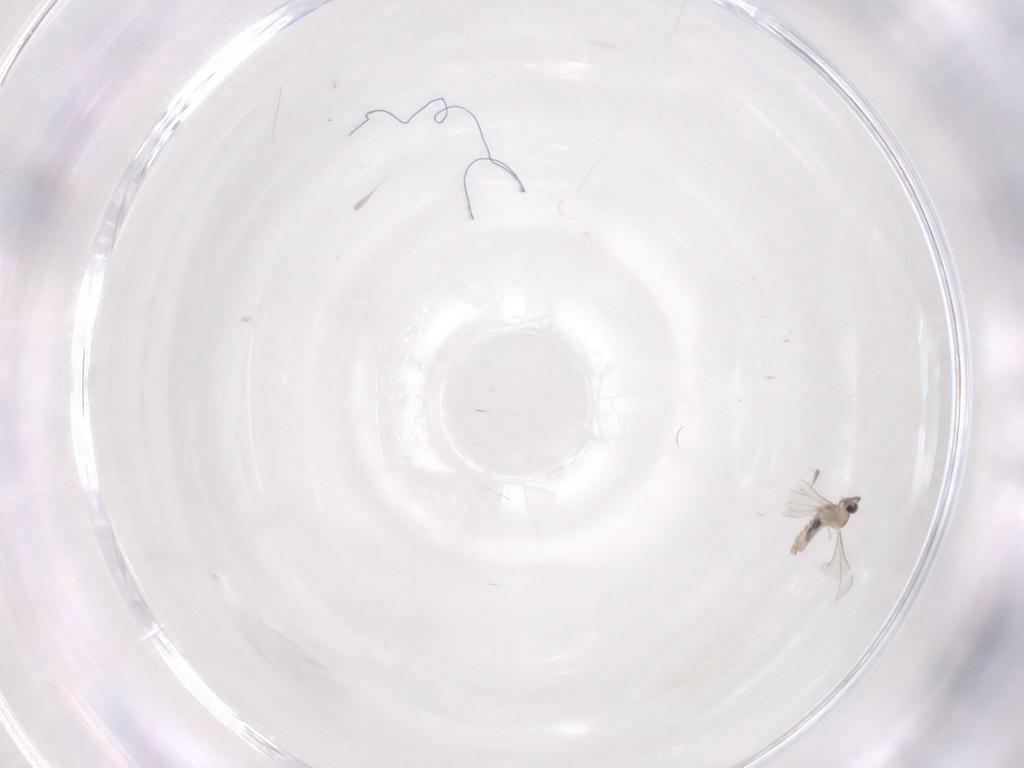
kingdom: Animalia
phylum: Arthropoda
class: Insecta
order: Diptera
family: Cecidomyiidae
